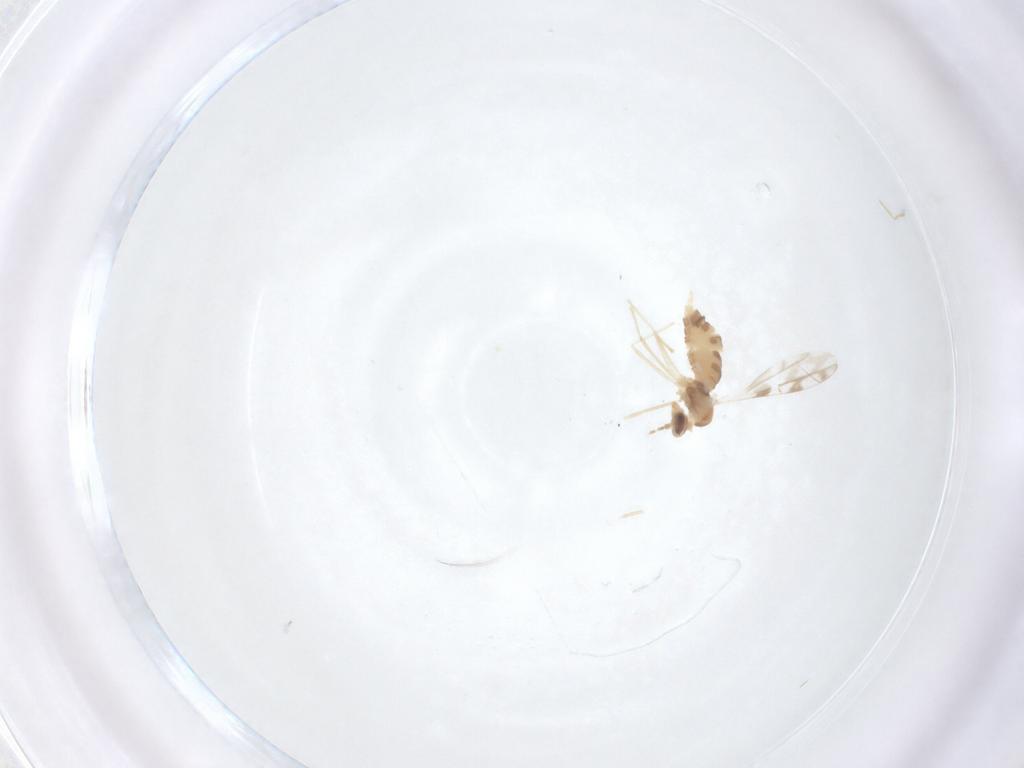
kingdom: Animalia
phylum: Arthropoda
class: Insecta
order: Diptera
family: Cecidomyiidae
